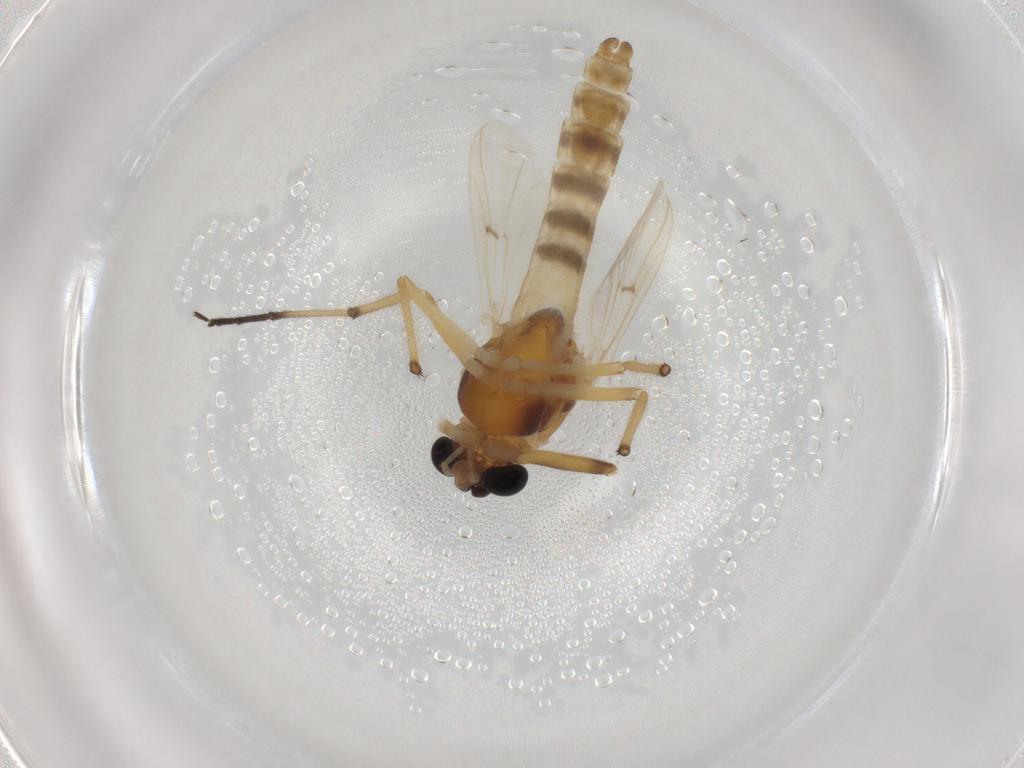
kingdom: Animalia
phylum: Arthropoda
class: Insecta
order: Diptera
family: Chironomidae
